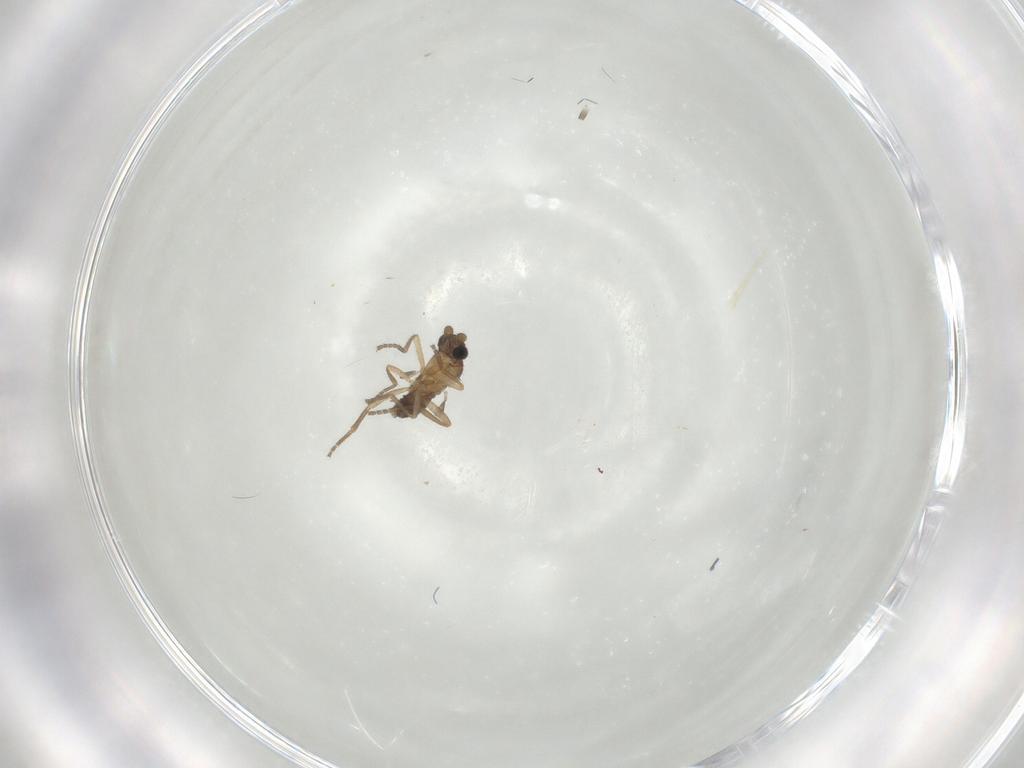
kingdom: Animalia
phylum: Arthropoda
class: Insecta
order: Diptera
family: Phoridae
